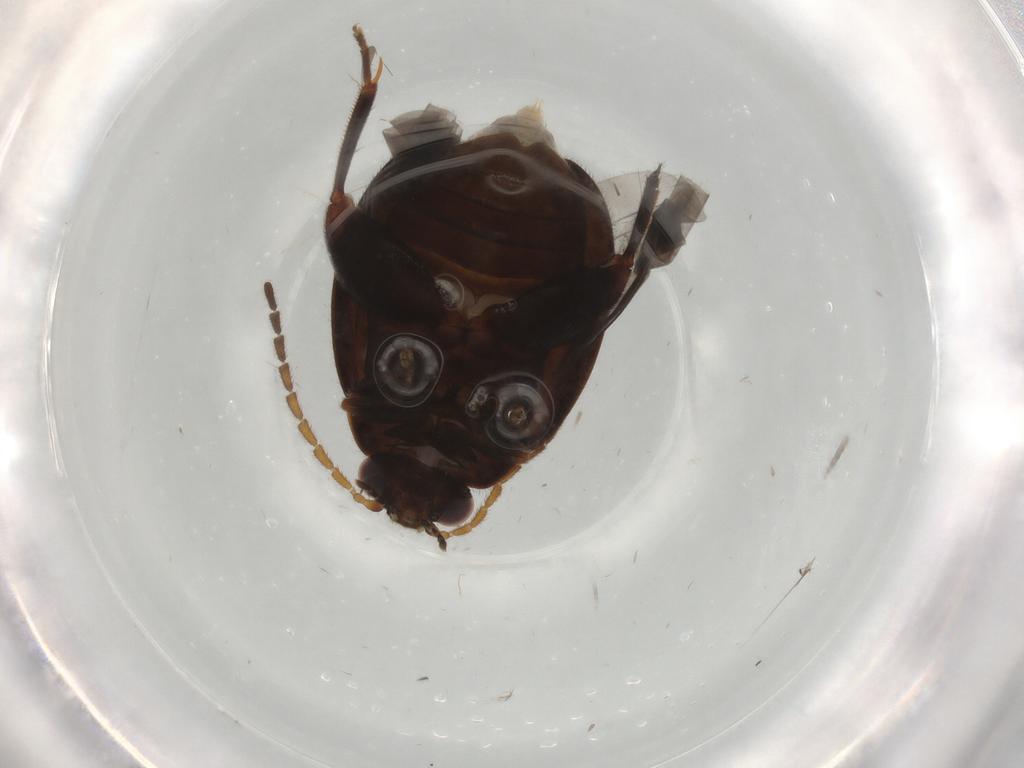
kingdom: Animalia
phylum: Arthropoda
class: Insecta
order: Coleoptera
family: Scirtidae
